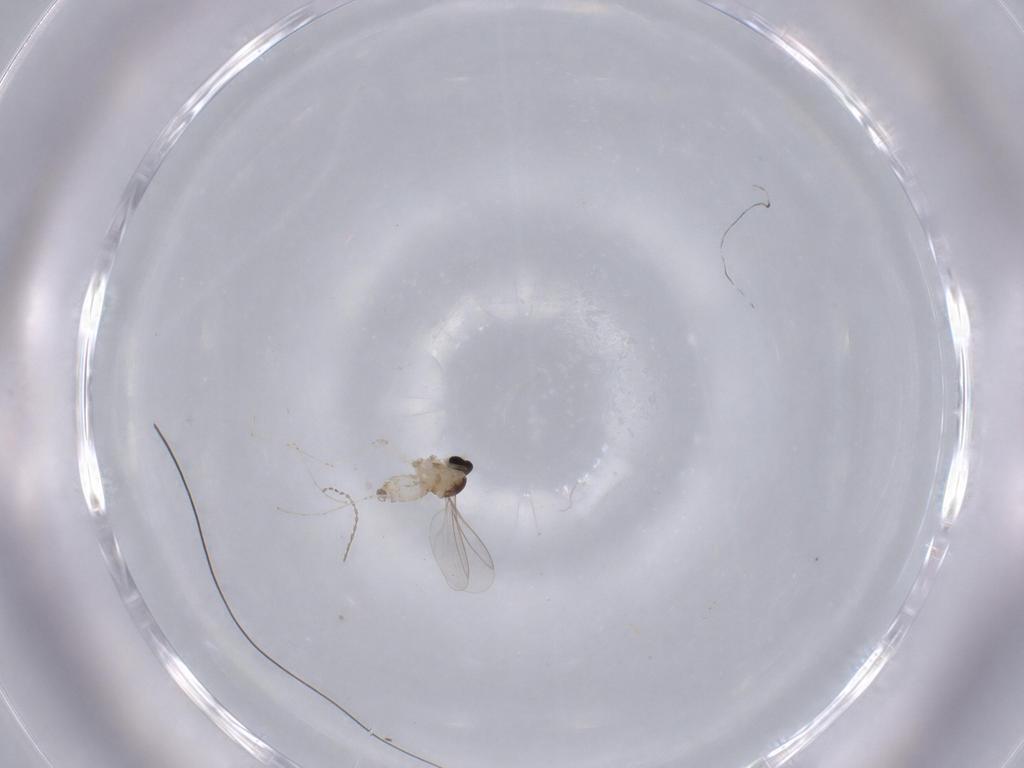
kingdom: Animalia
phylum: Arthropoda
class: Insecta
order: Diptera
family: Cecidomyiidae
